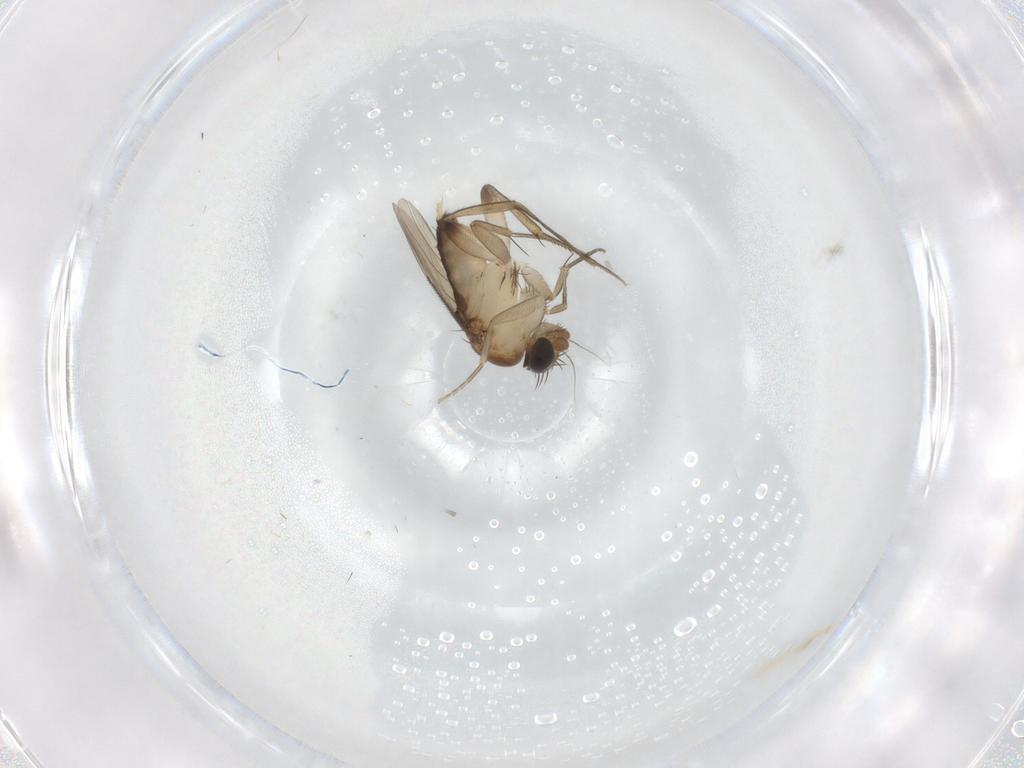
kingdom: Animalia
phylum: Arthropoda
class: Insecta
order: Diptera
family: Phoridae
